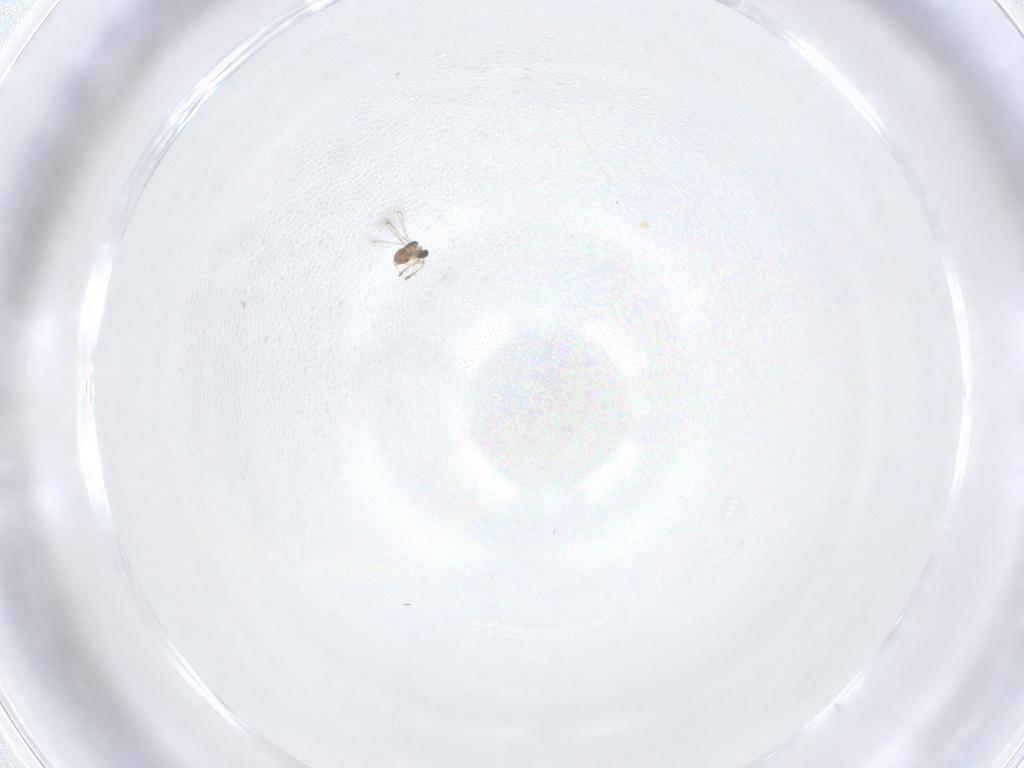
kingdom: Animalia
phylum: Arthropoda
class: Insecta
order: Hymenoptera
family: Mymaridae
